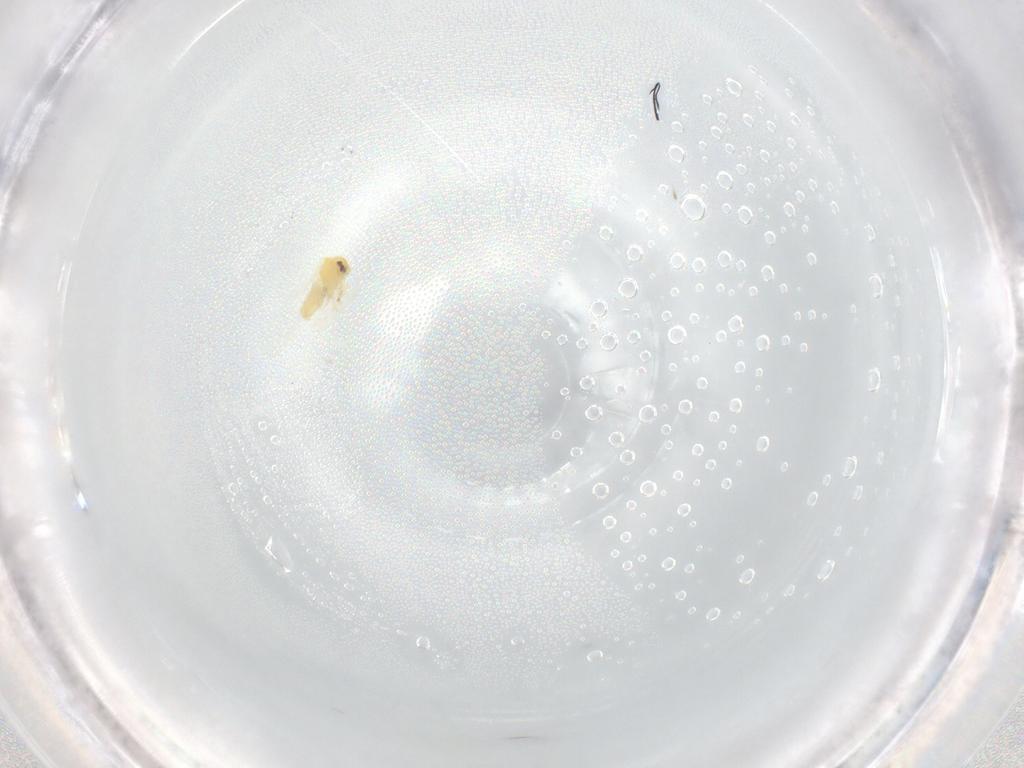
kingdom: Animalia
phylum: Arthropoda
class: Insecta
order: Hemiptera
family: Aleyrodidae
